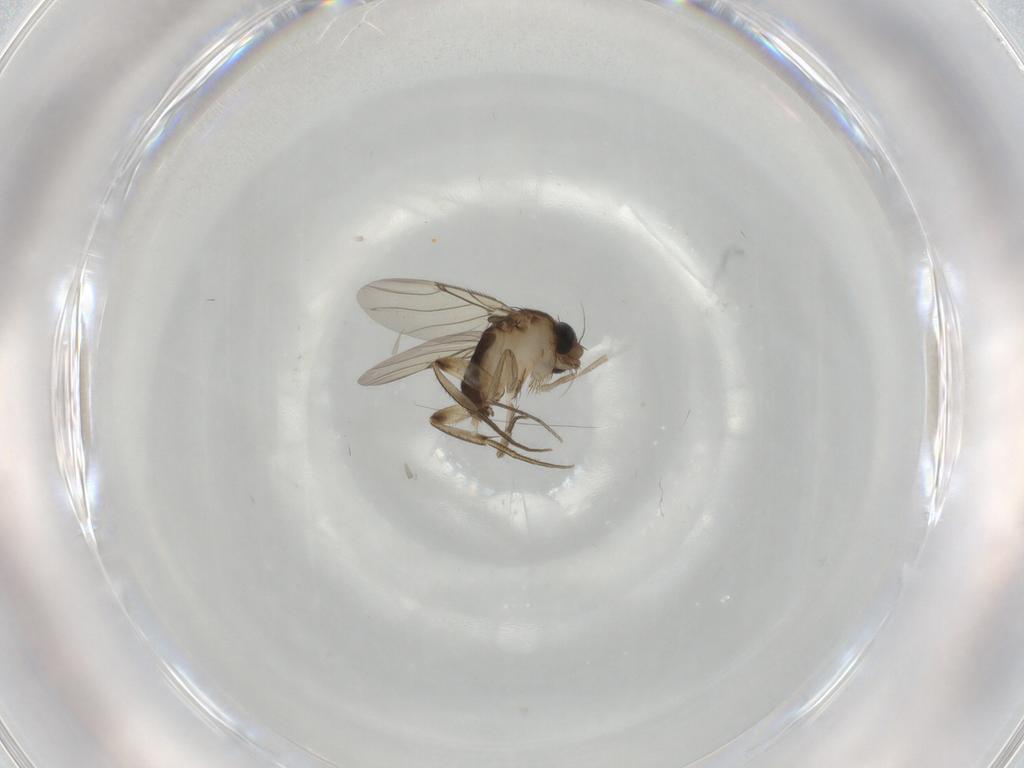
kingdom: Animalia
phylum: Arthropoda
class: Insecta
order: Diptera
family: Phoridae
